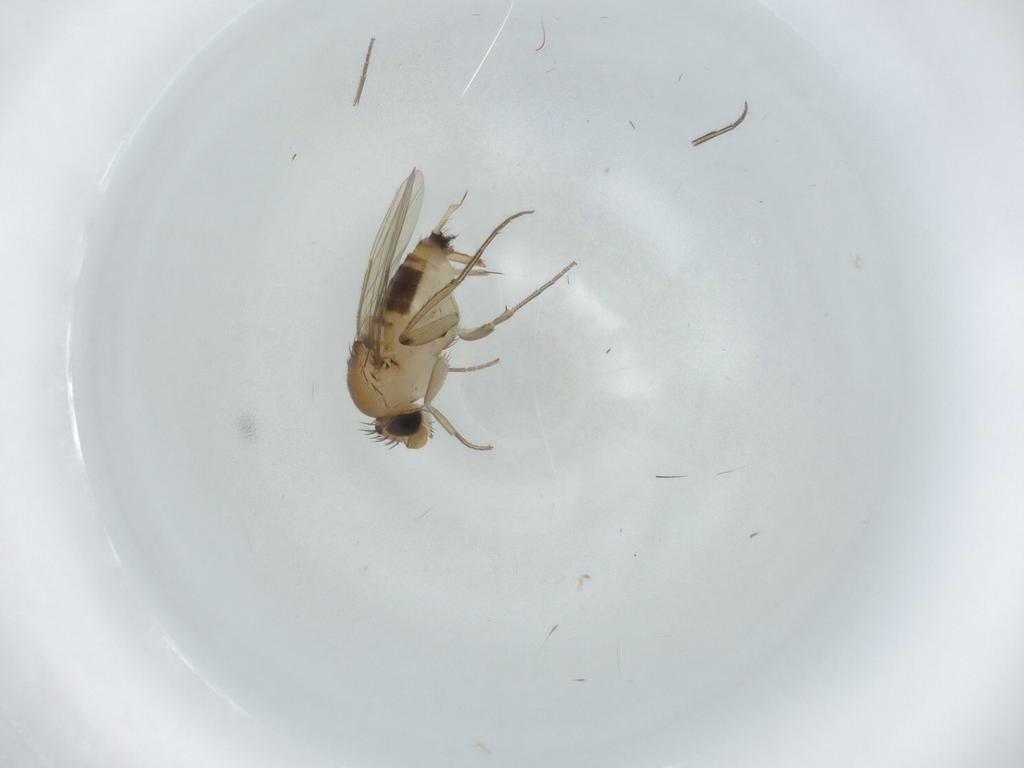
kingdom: Animalia
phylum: Arthropoda
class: Insecta
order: Diptera
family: Phoridae
